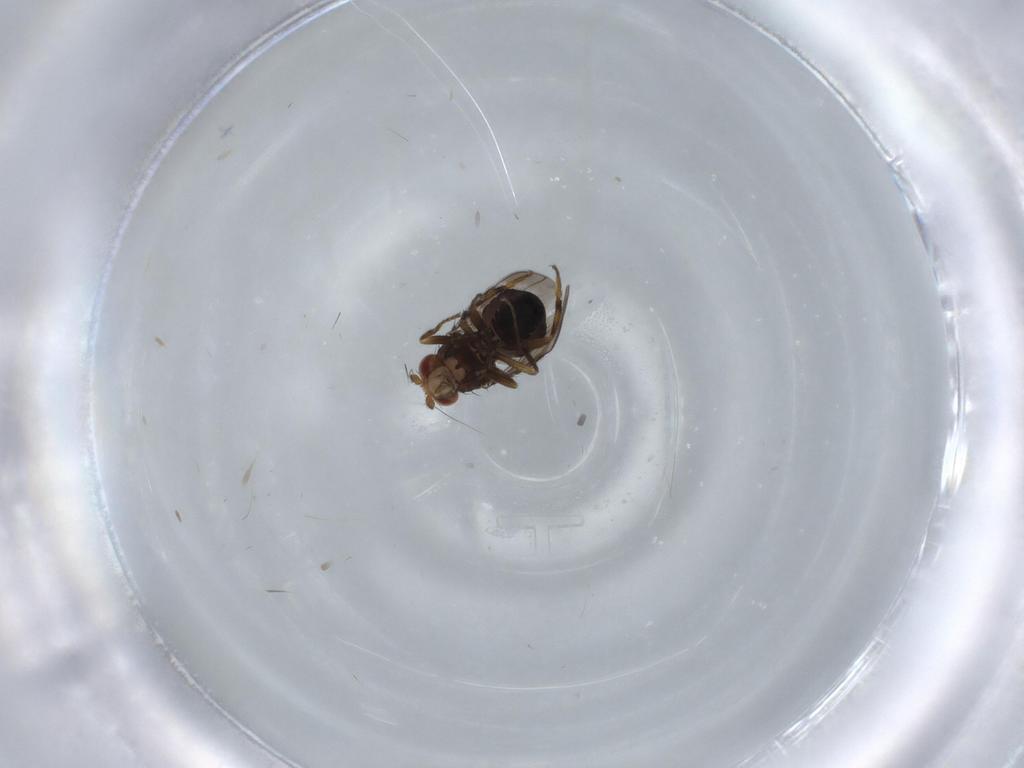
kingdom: Animalia
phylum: Arthropoda
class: Insecta
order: Diptera
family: Sphaeroceridae
